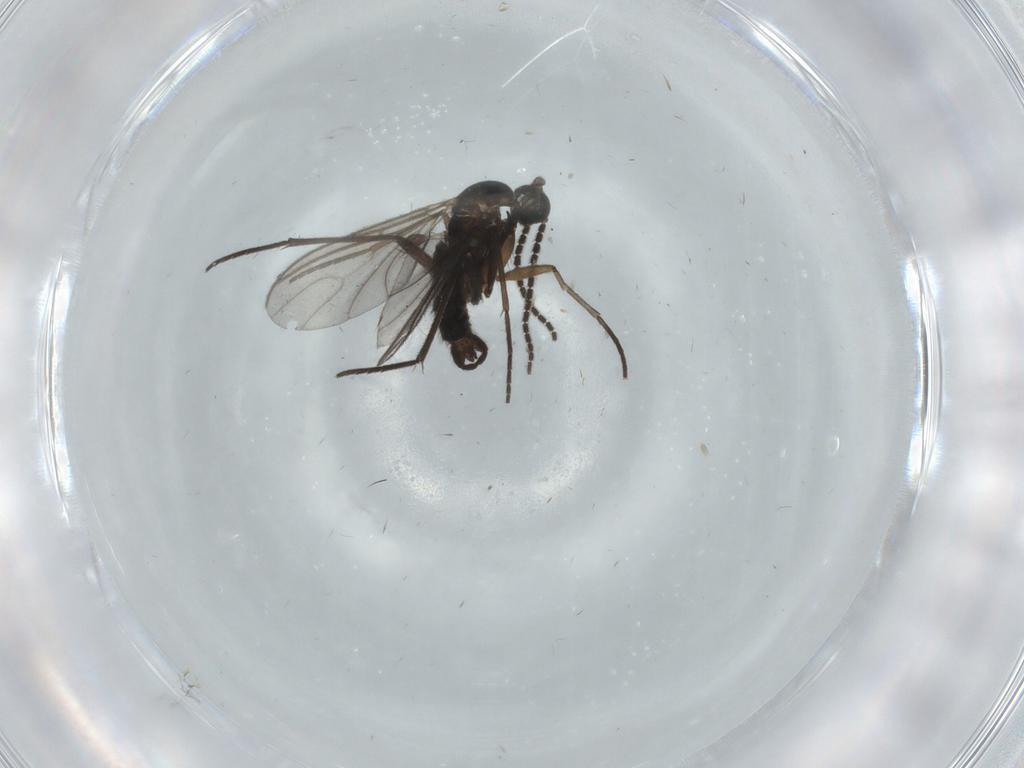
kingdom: Animalia
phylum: Arthropoda
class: Insecta
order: Diptera
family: Sciaridae
